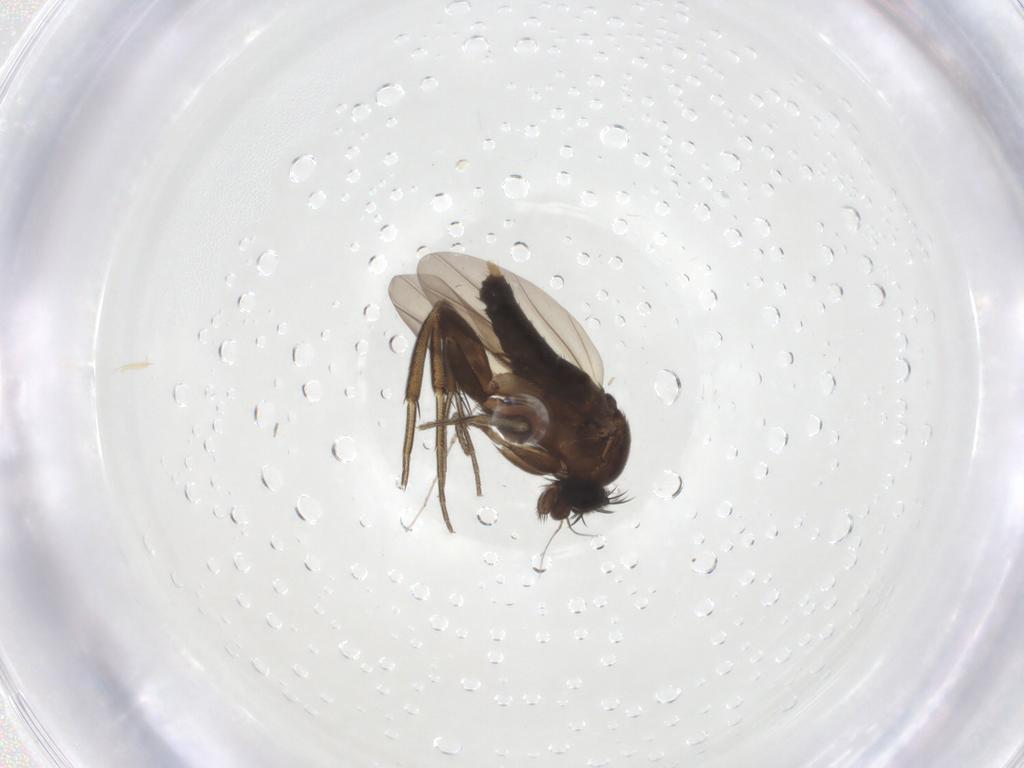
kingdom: Animalia
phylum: Arthropoda
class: Insecta
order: Diptera
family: Phoridae
